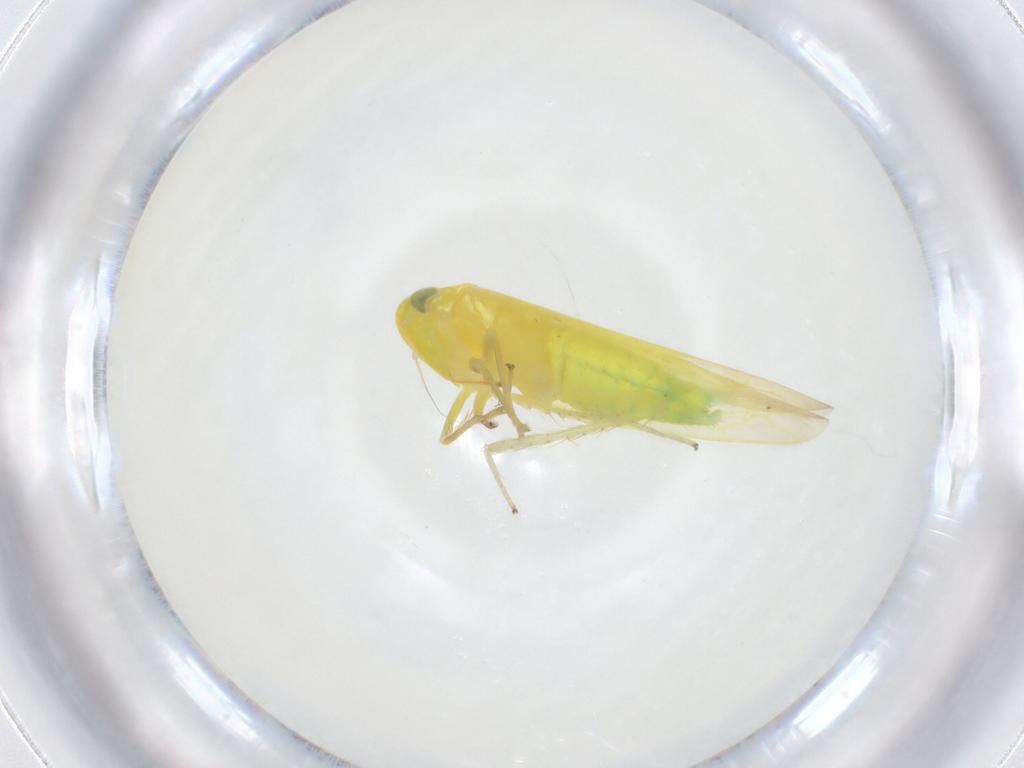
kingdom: Animalia
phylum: Arthropoda
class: Insecta
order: Hemiptera
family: Cicadellidae
